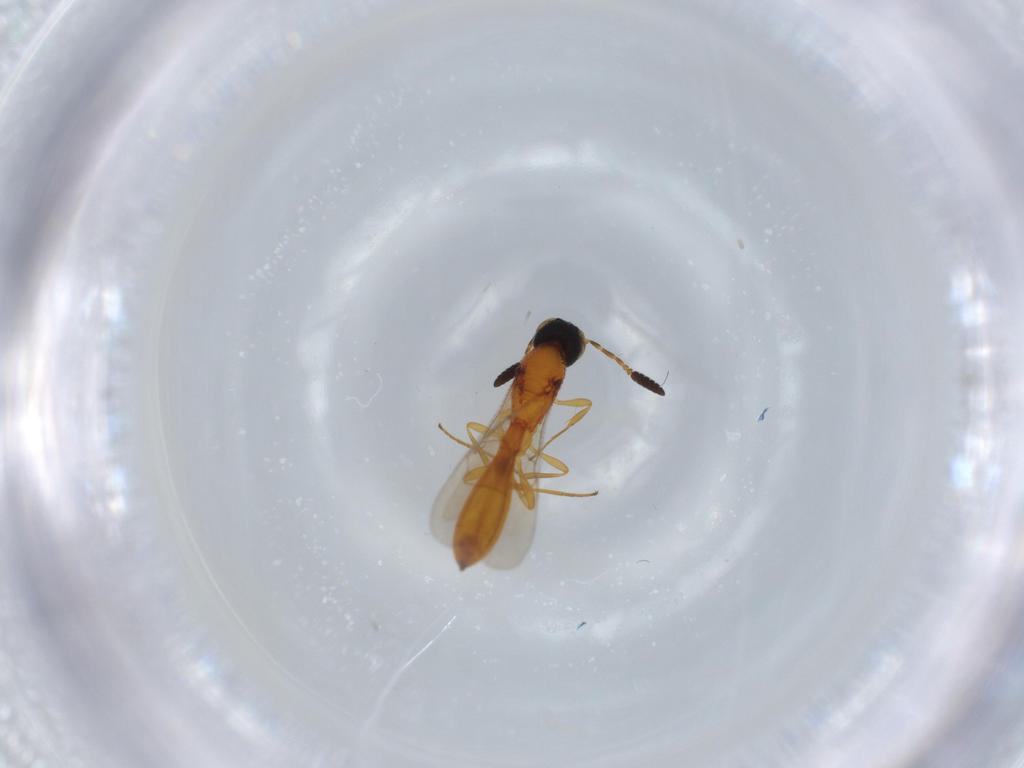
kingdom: Animalia
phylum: Arthropoda
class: Insecta
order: Hymenoptera
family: Scelionidae
